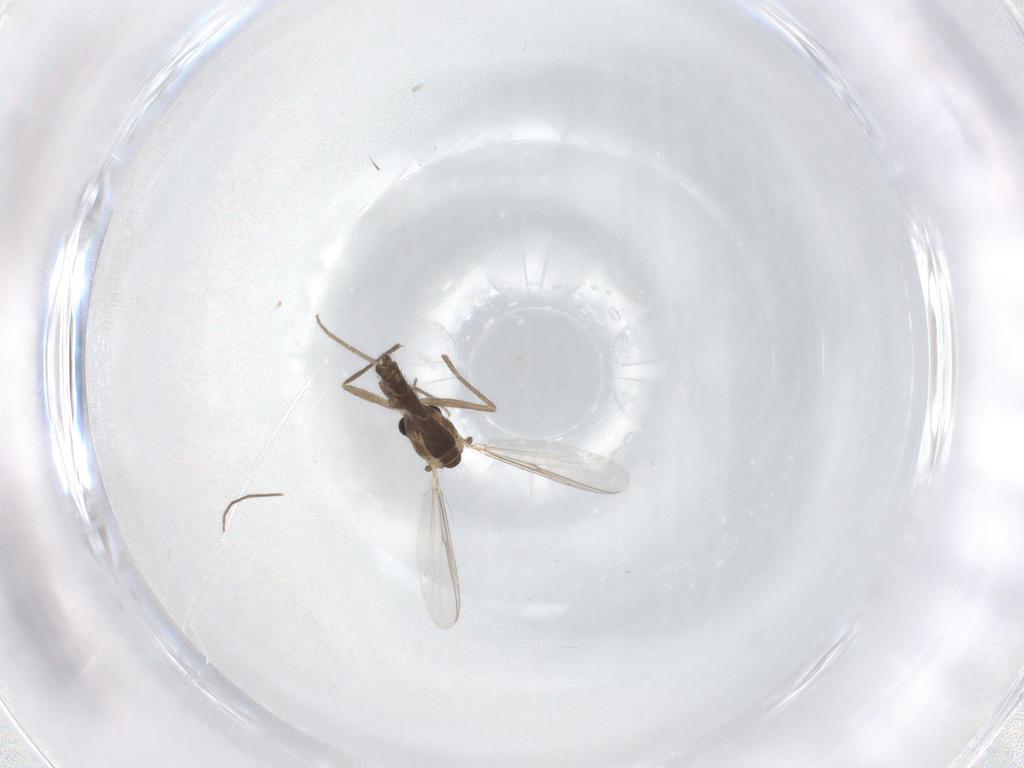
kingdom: Animalia
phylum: Arthropoda
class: Insecta
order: Diptera
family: Chironomidae
